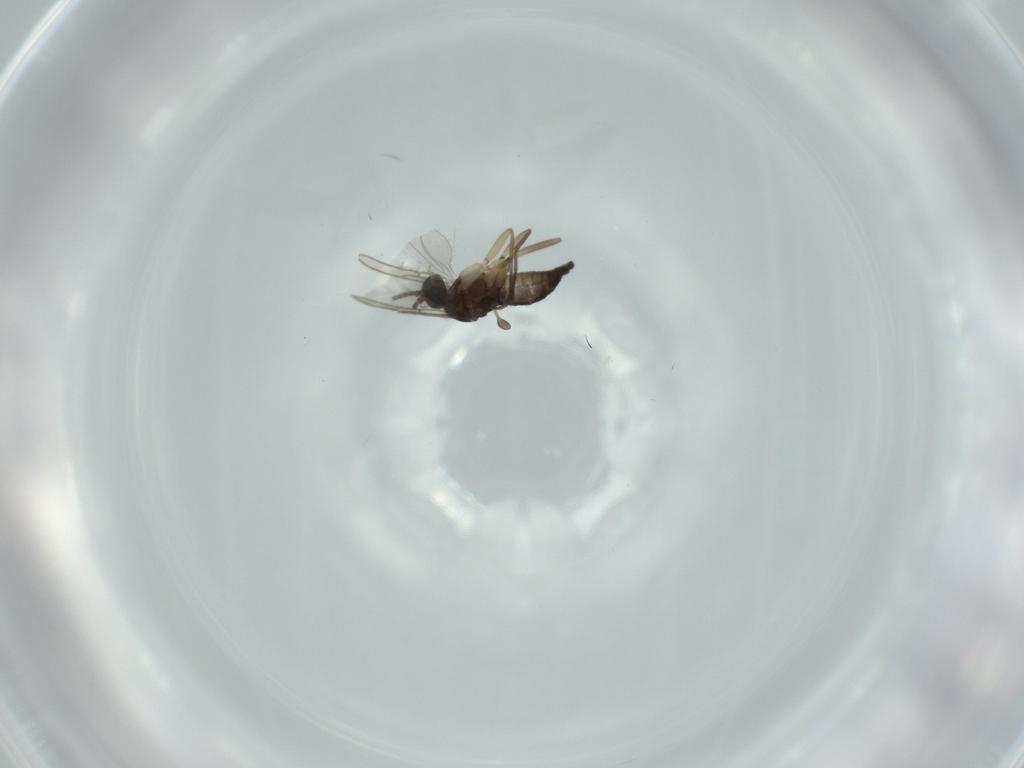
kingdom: Animalia
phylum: Arthropoda
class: Insecta
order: Diptera
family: Sciaridae
